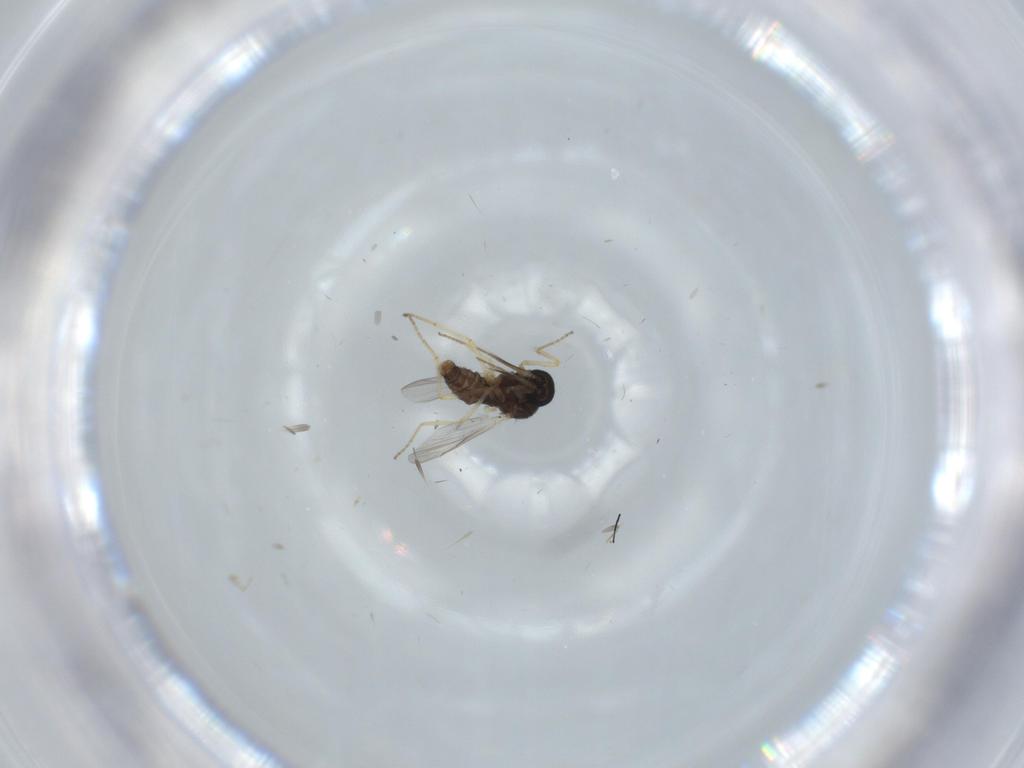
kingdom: Animalia
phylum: Arthropoda
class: Insecta
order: Diptera
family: Ceratopogonidae
